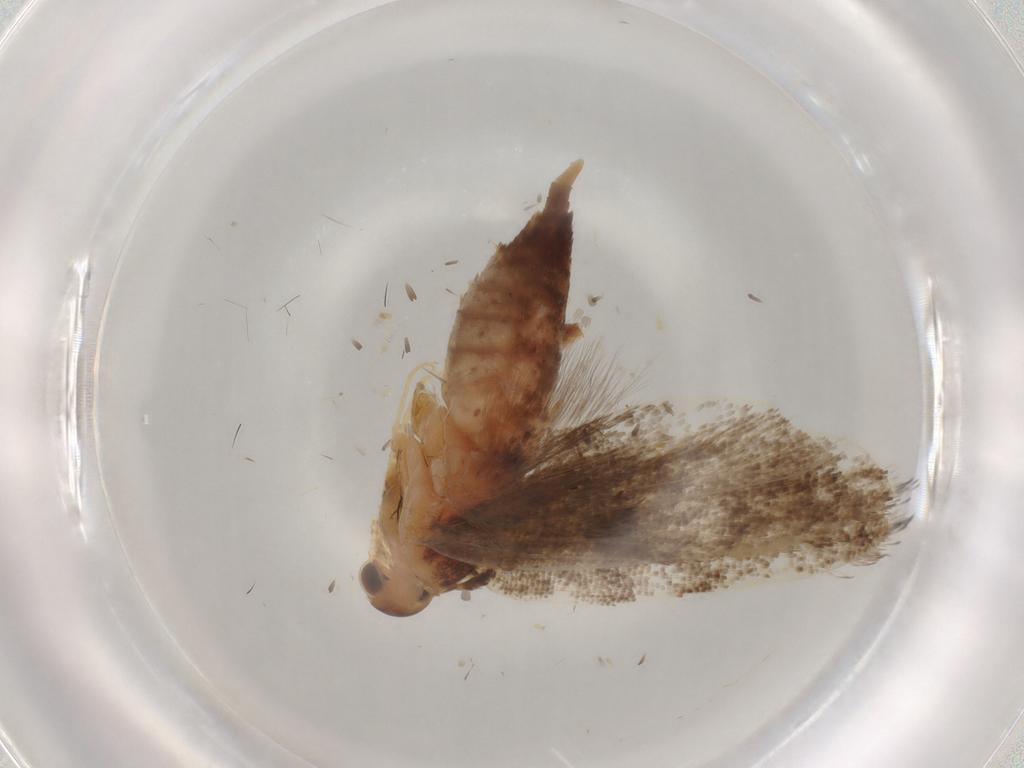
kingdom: Animalia
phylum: Arthropoda
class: Insecta
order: Lepidoptera
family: Lecithoceridae
